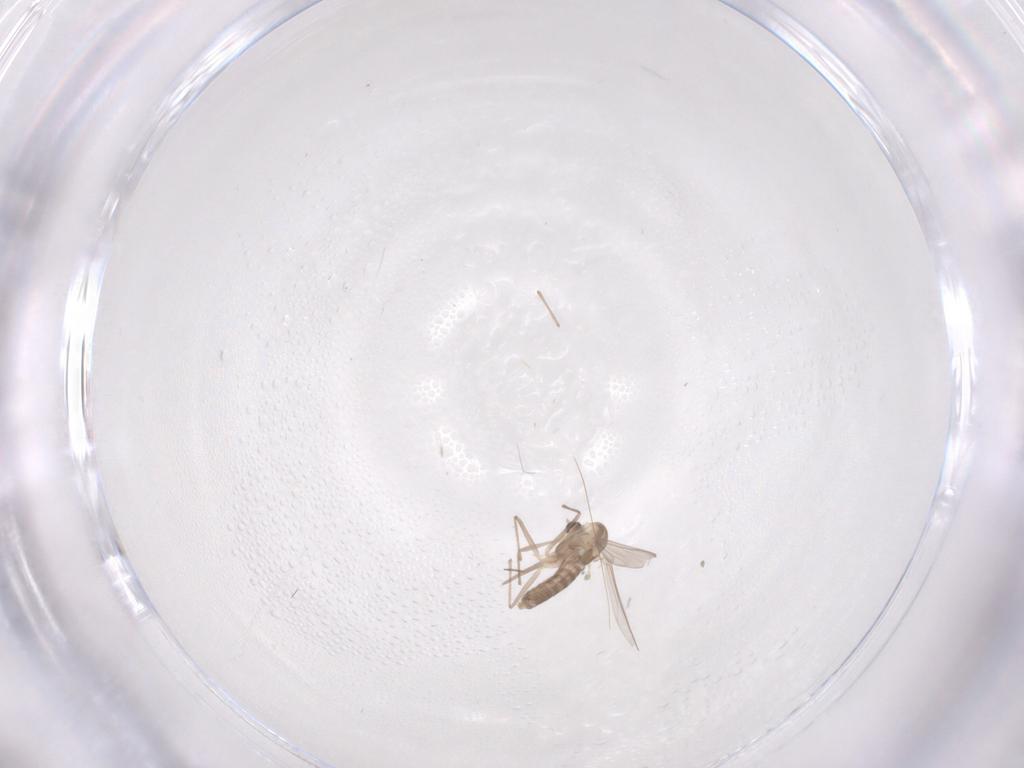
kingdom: Animalia
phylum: Arthropoda
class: Insecta
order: Diptera
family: Chironomidae
